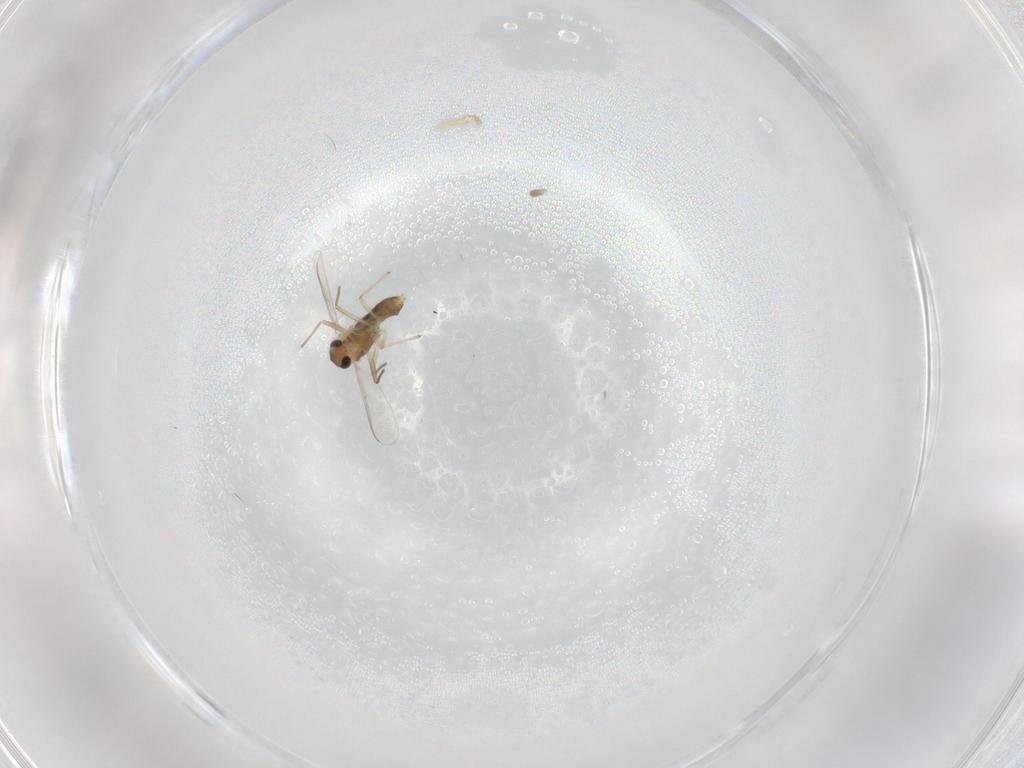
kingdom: Animalia
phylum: Arthropoda
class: Insecta
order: Diptera
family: Chironomidae
